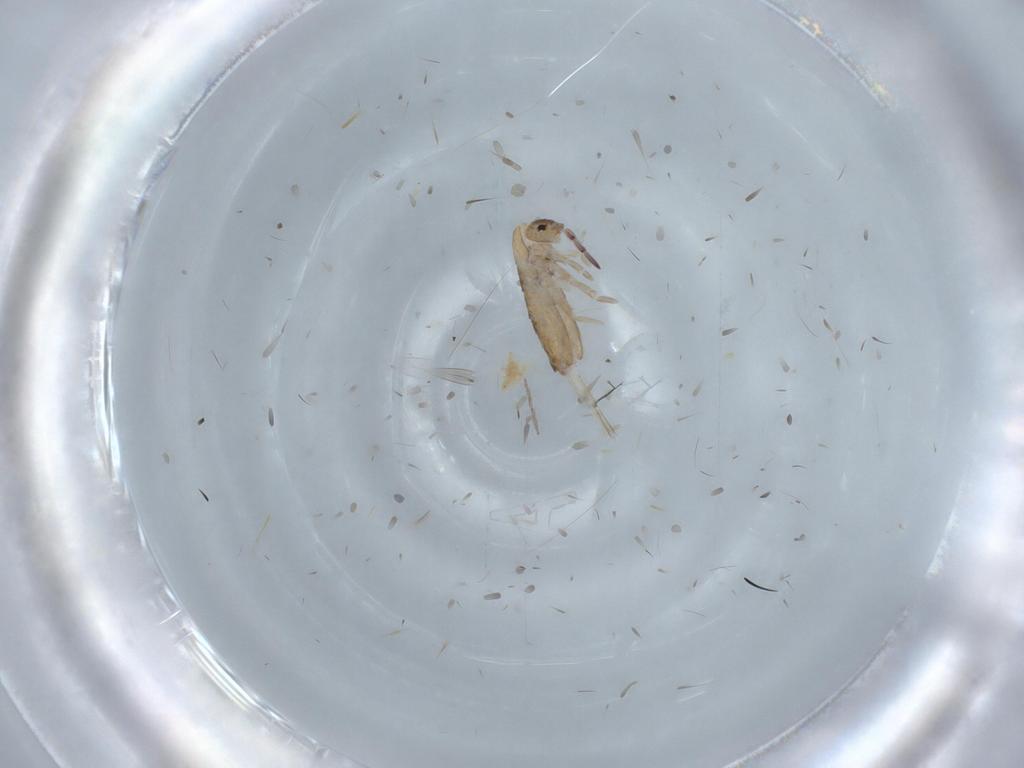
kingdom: Animalia
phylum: Arthropoda
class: Collembola
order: Entomobryomorpha
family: Entomobryidae
